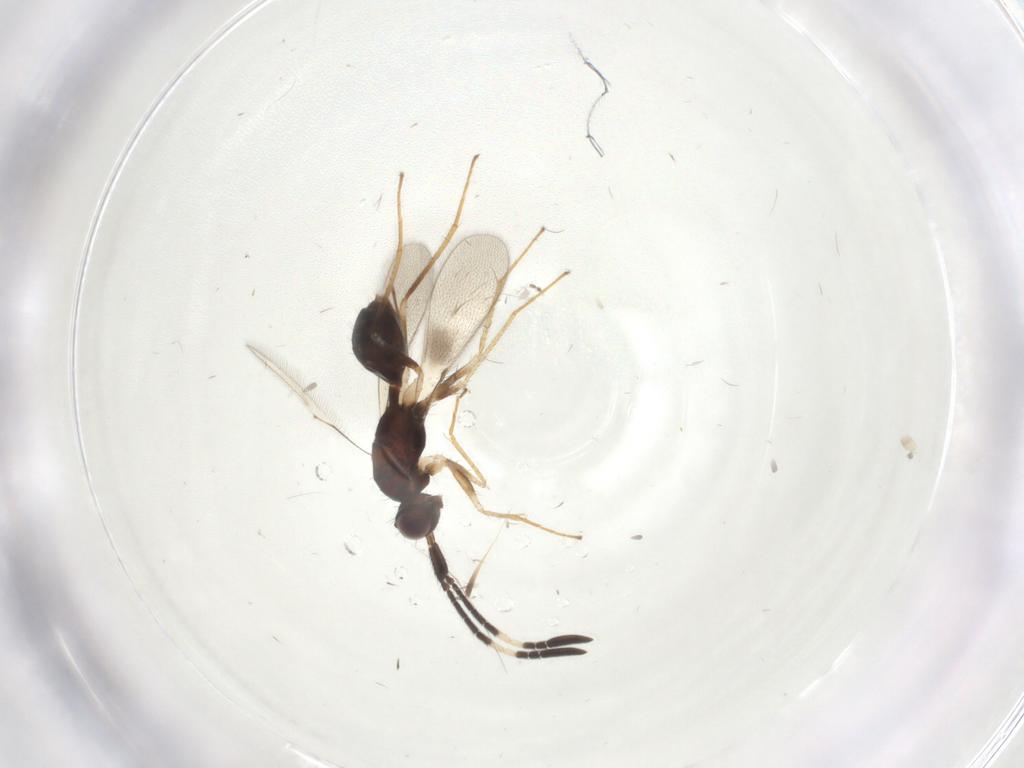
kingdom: Animalia
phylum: Arthropoda
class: Insecta
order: Hymenoptera
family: Mymaridae
